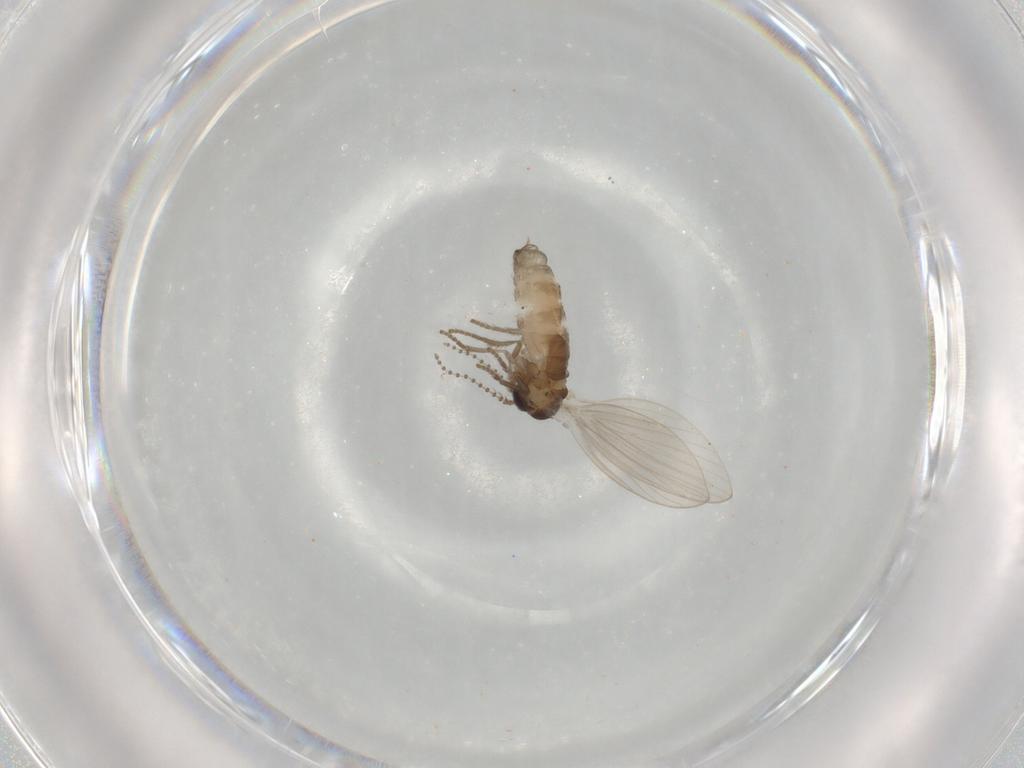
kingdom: Animalia
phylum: Arthropoda
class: Insecta
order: Diptera
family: Psychodidae
